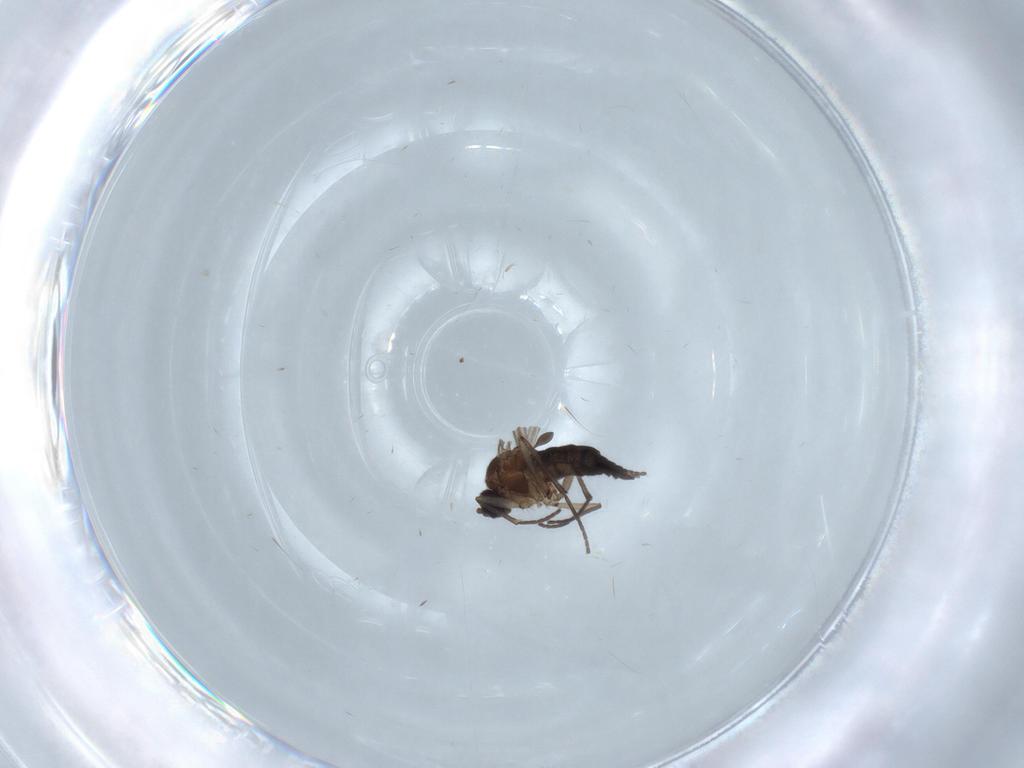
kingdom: Animalia
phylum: Arthropoda
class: Insecta
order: Diptera
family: Sciaridae
